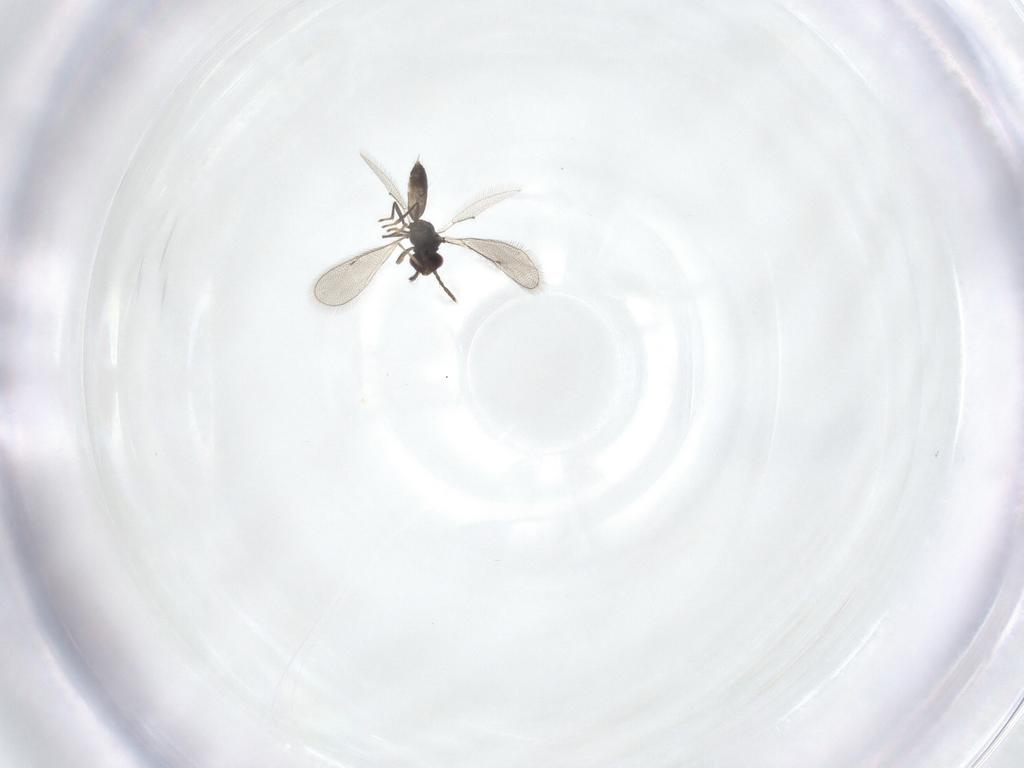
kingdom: Animalia
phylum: Arthropoda
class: Insecta
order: Hymenoptera
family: Eulophidae
